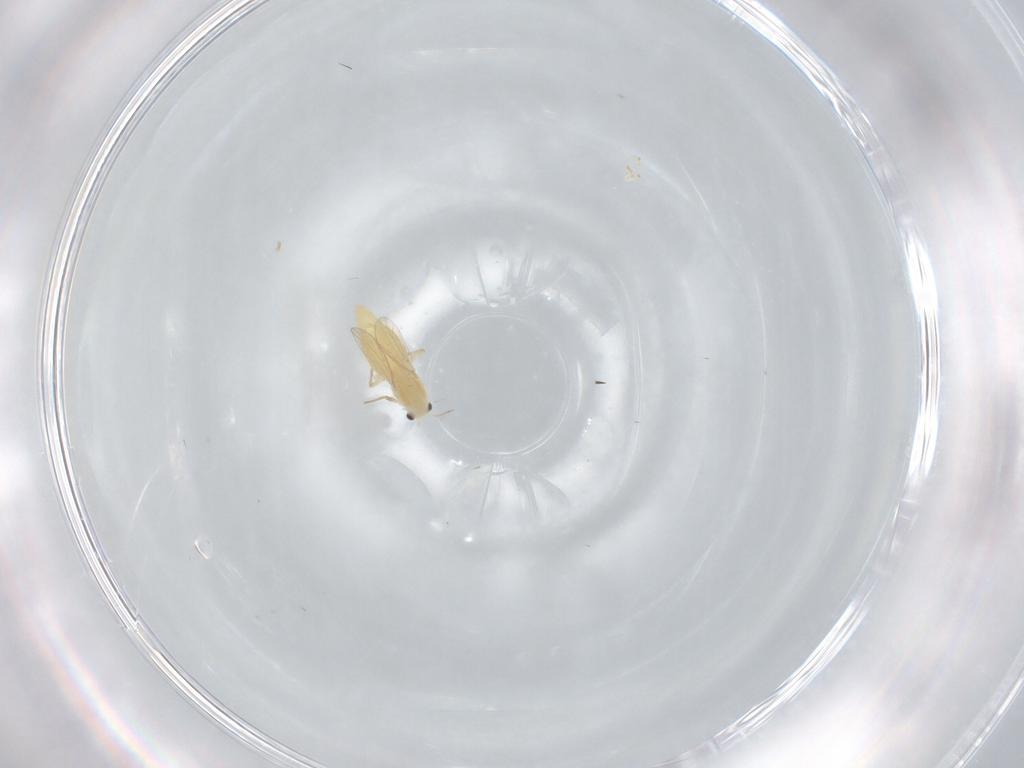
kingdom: Animalia
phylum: Arthropoda
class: Insecta
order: Diptera
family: Chironomidae
